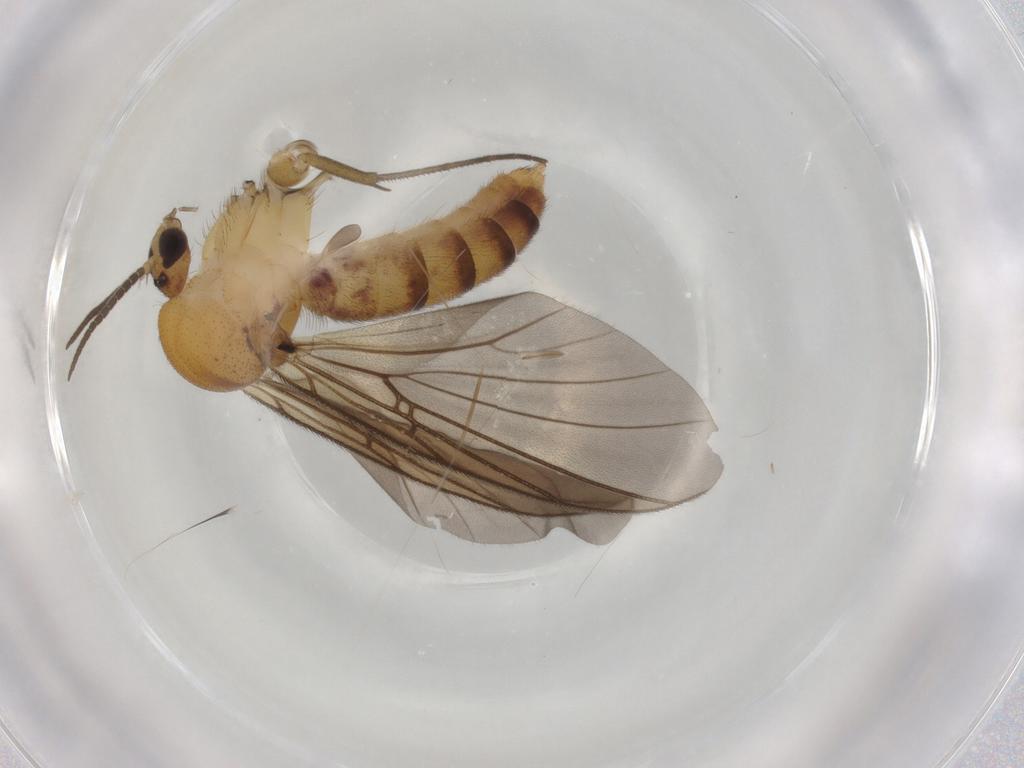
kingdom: Animalia
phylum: Arthropoda
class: Insecta
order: Diptera
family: Mycetophilidae
